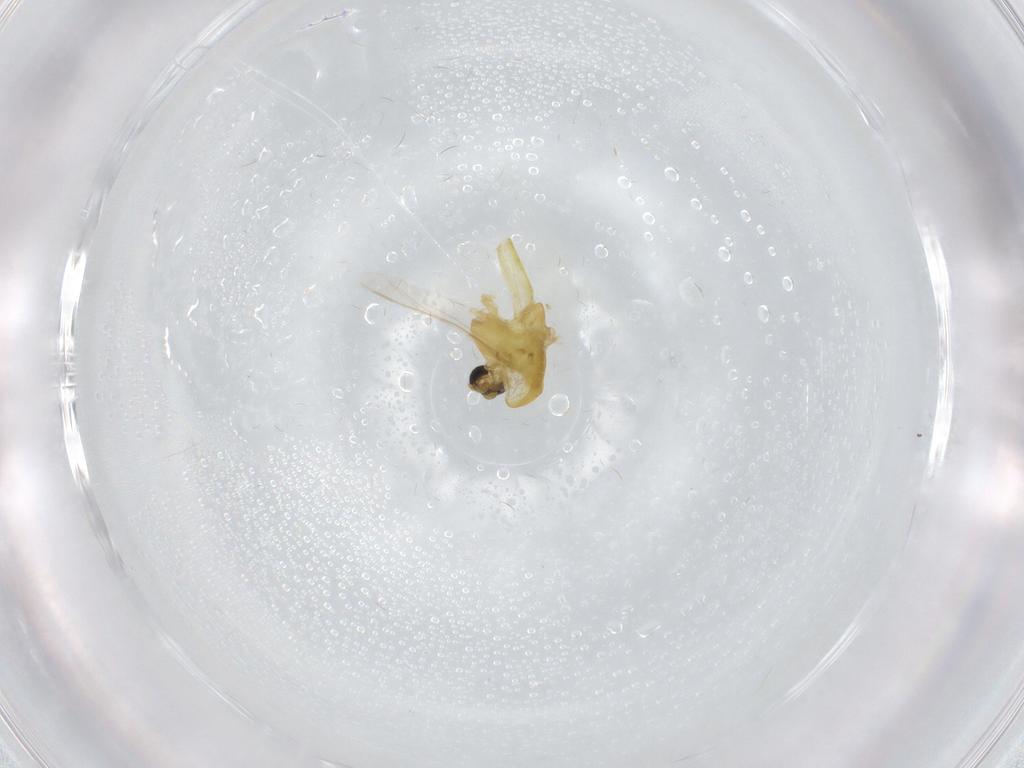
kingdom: Animalia
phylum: Arthropoda
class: Insecta
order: Diptera
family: Chironomidae
